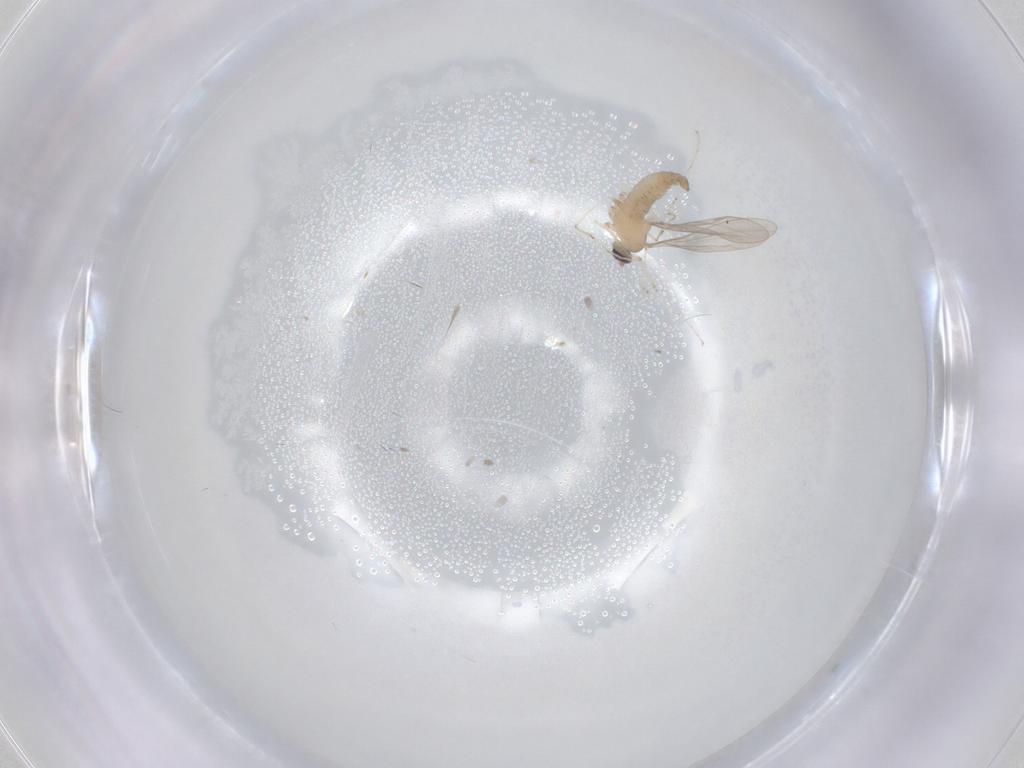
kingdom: Animalia
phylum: Arthropoda
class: Insecta
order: Diptera
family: Cecidomyiidae
